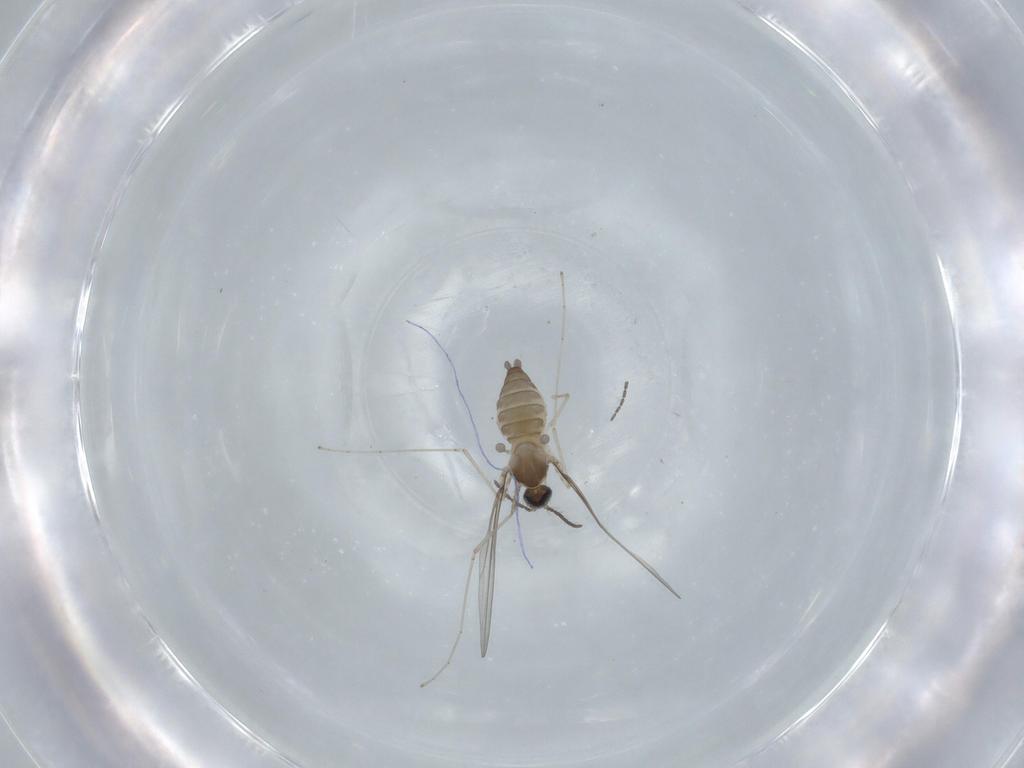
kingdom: Animalia
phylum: Arthropoda
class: Insecta
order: Diptera
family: Cecidomyiidae
